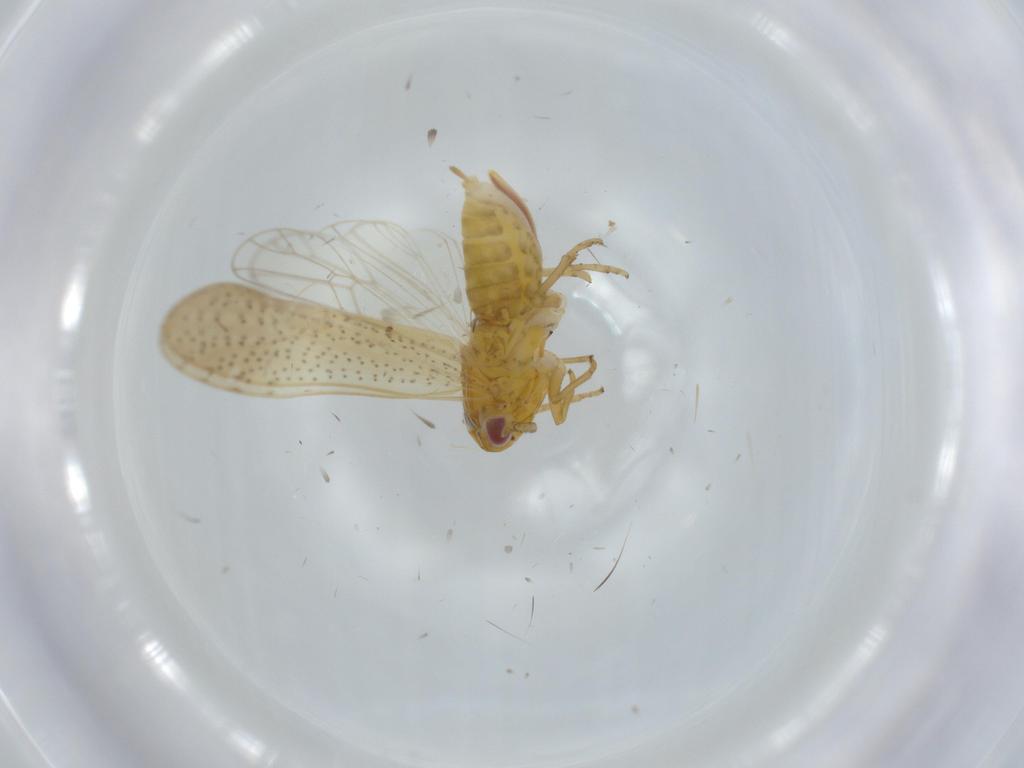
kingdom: Animalia
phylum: Arthropoda
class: Insecta
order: Hemiptera
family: Delphacidae
